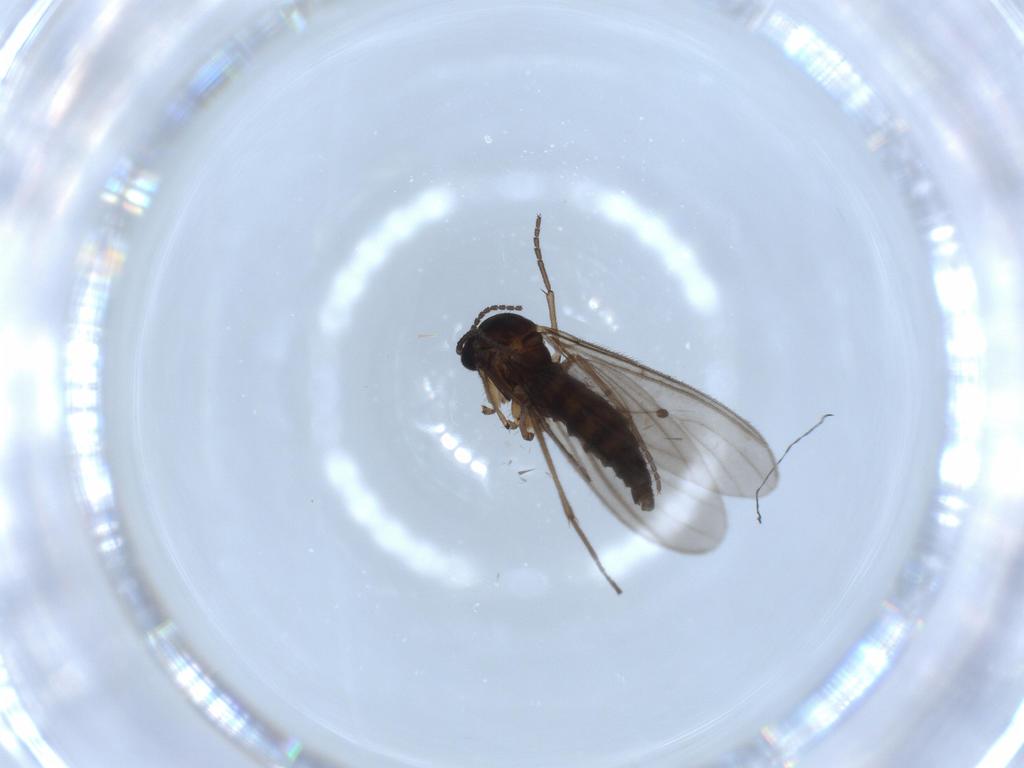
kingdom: Animalia
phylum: Arthropoda
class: Insecta
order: Diptera
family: Sciaridae
